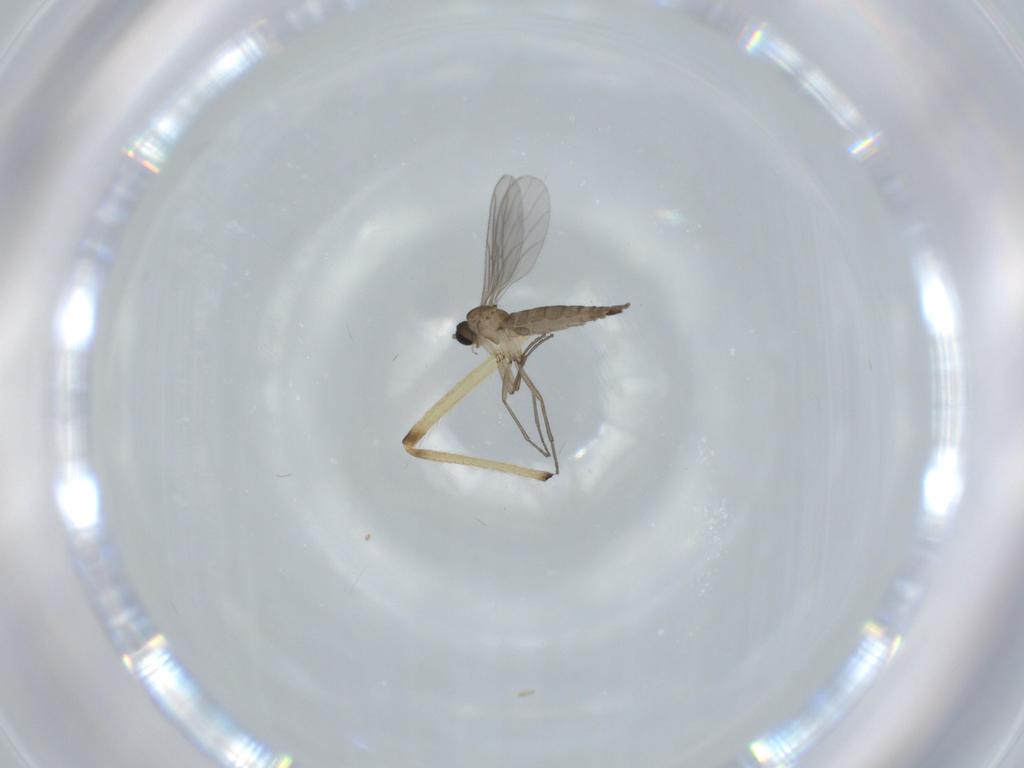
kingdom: Animalia
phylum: Arthropoda
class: Insecta
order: Diptera
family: Sciaridae
